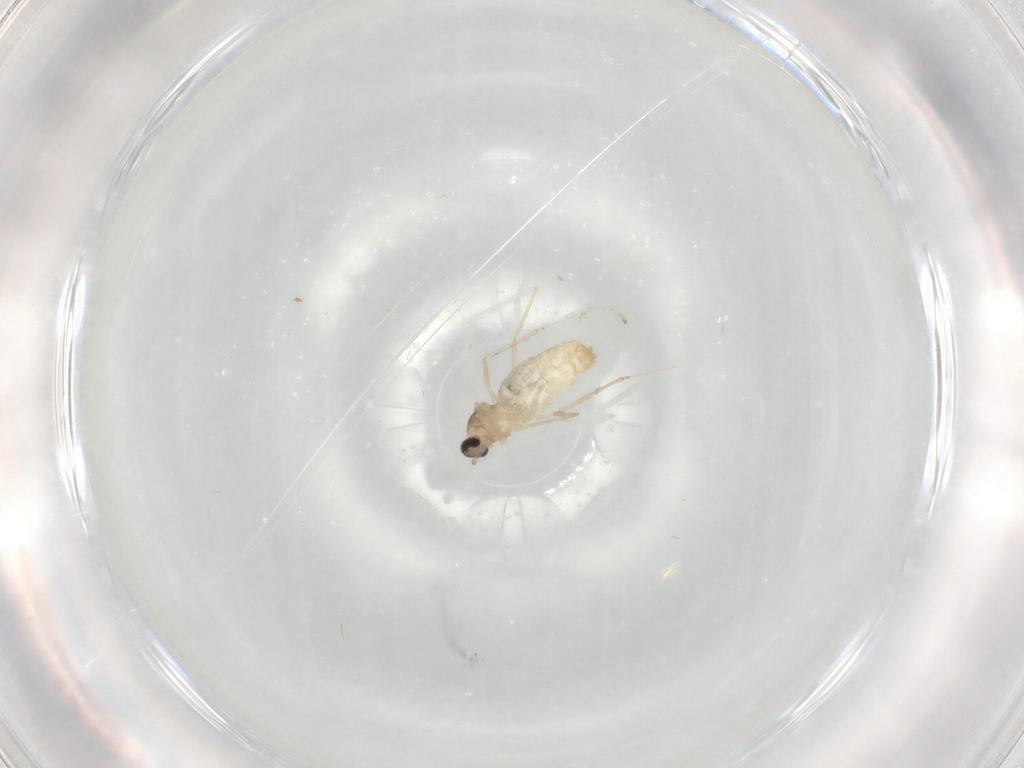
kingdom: Animalia
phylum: Arthropoda
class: Insecta
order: Diptera
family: Cecidomyiidae
